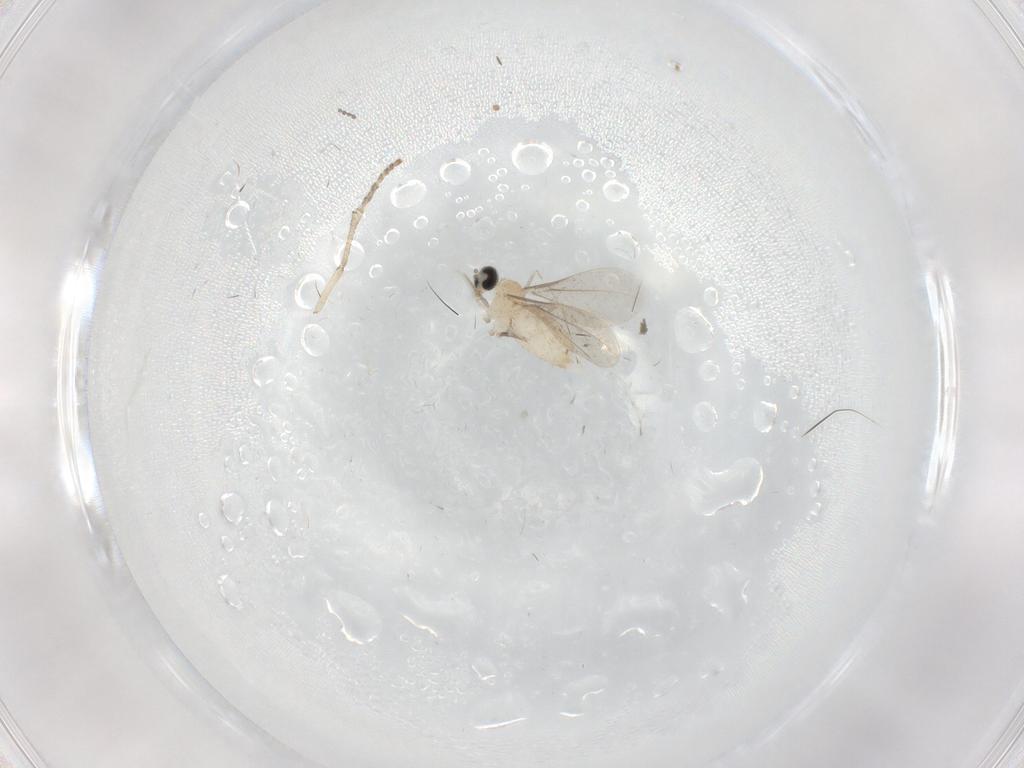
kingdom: Animalia
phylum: Arthropoda
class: Insecta
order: Diptera
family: Cecidomyiidae
